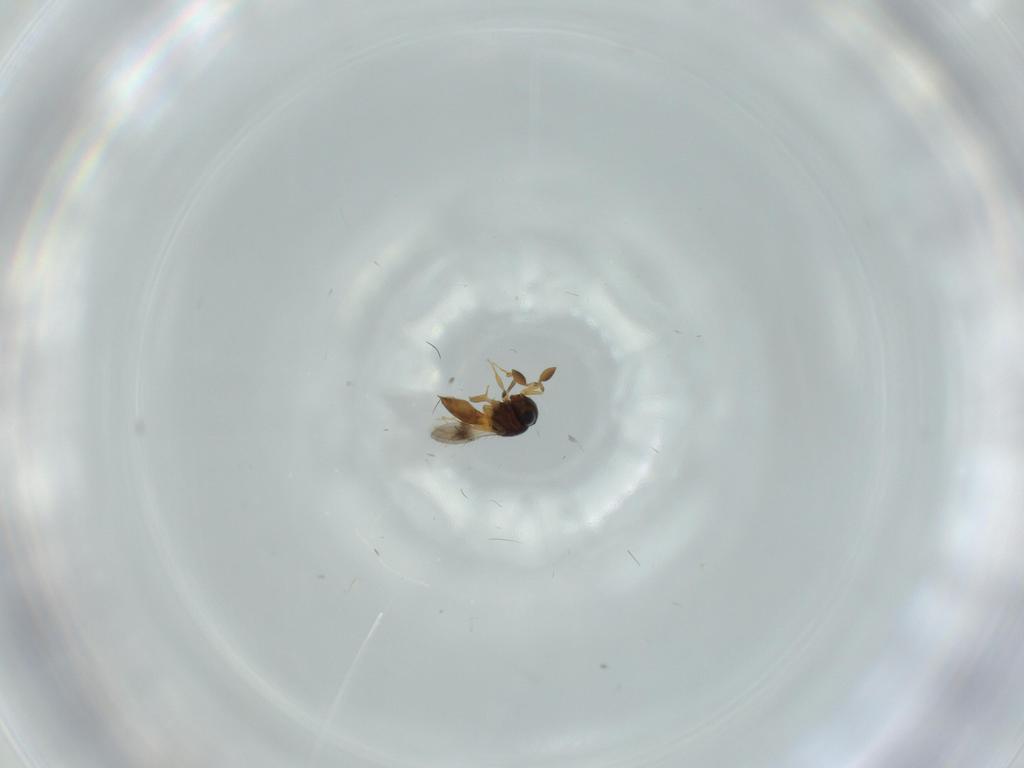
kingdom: Animalia
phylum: Arthropoda
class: Insecta
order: Hymenoptera
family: Scelionidae
